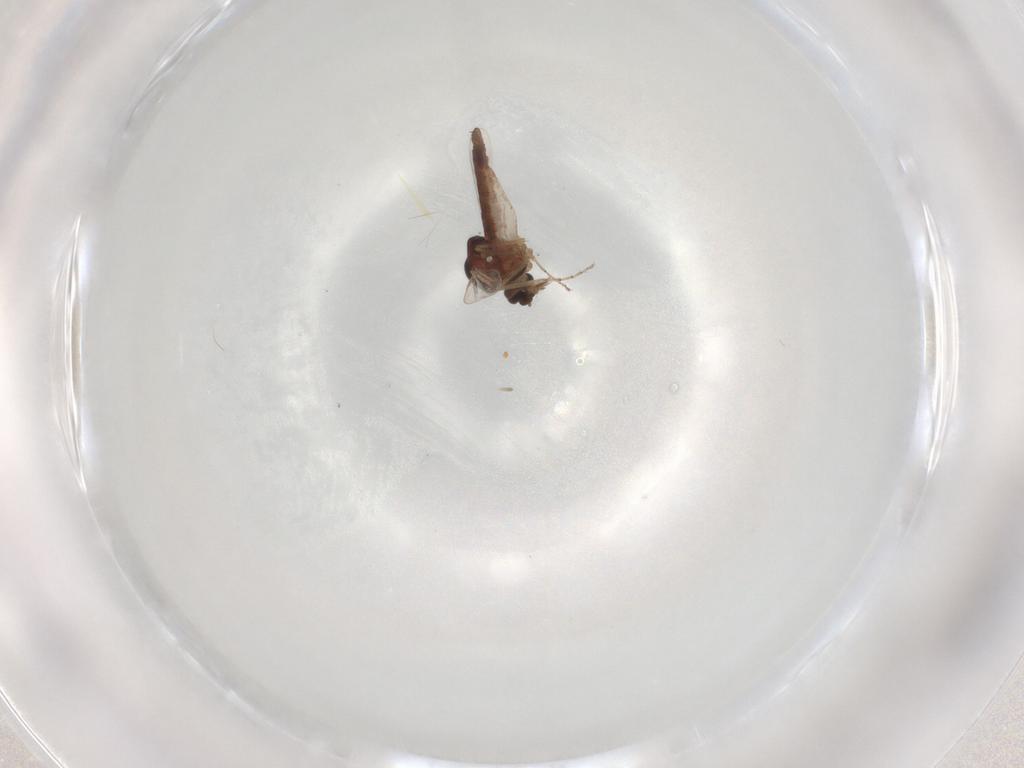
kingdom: Animalia
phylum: Arthropoda
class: Insecta
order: Diptera
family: Ceratopogonidae
